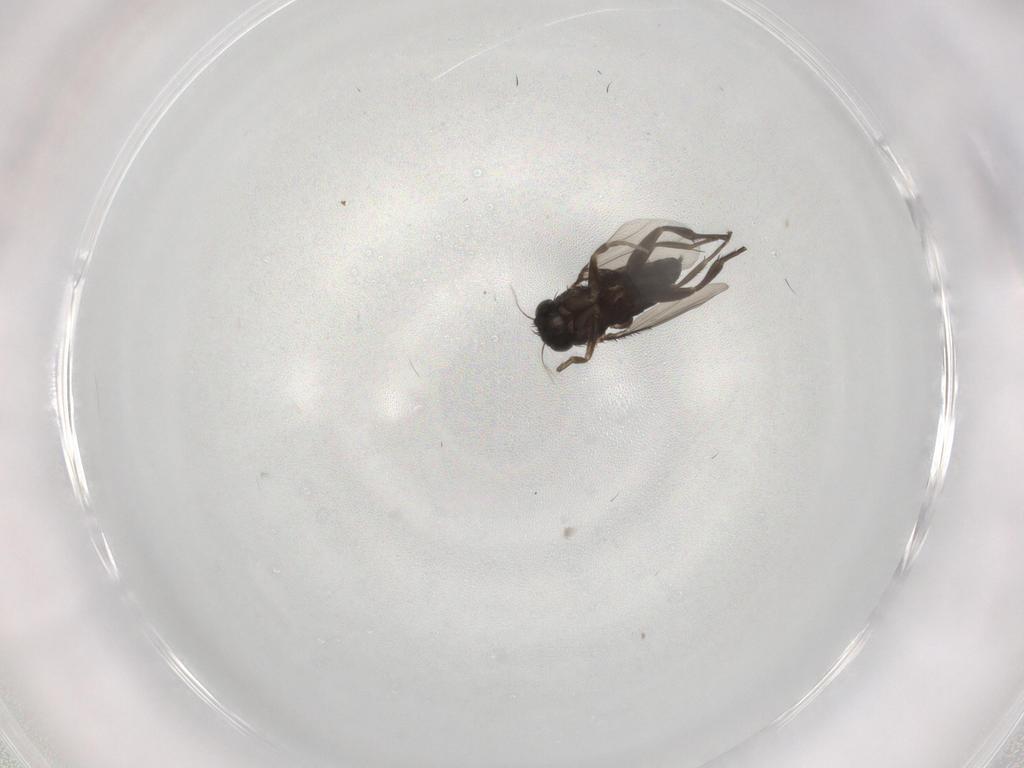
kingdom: Animalia
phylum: Arthropoda
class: Insecta
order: Diptera
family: Phoridae
